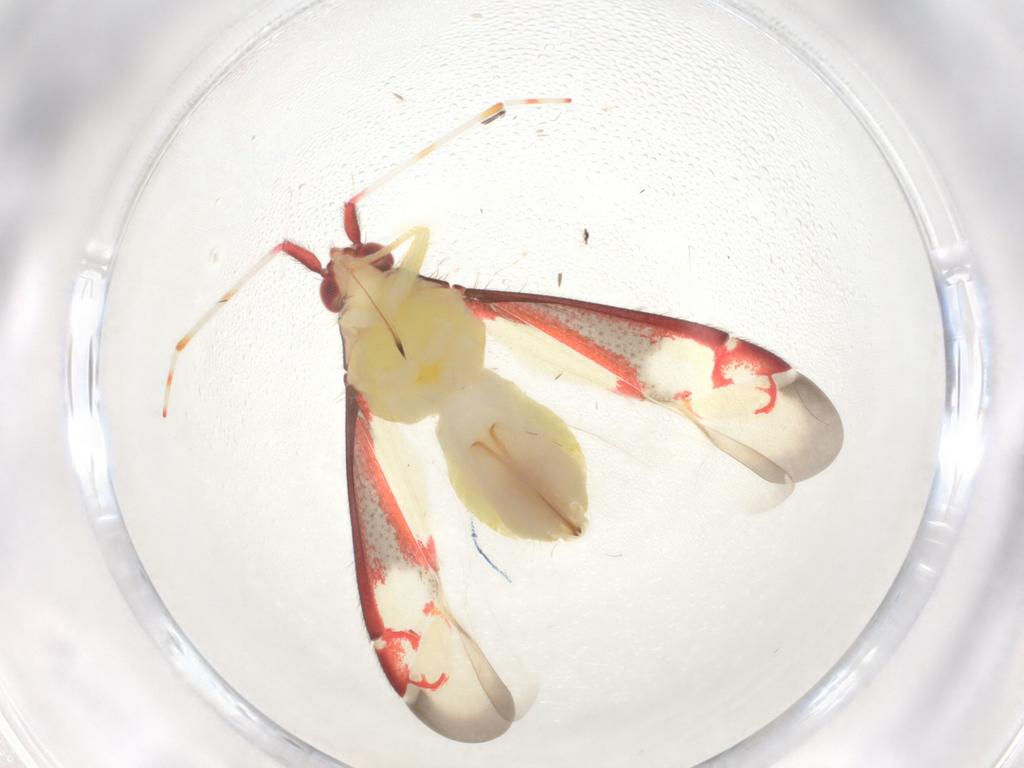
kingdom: Animalia
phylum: Arthropoda
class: Insecta
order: Hemiptera
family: Miridae
